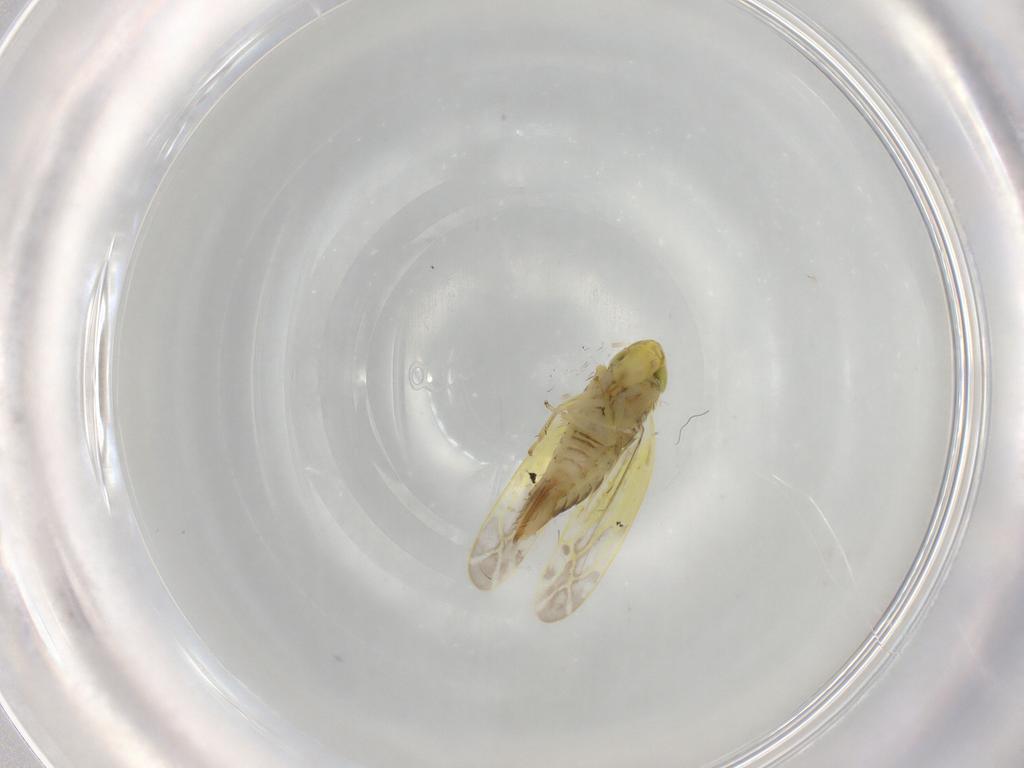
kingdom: Animalia
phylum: Arthropoda
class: Insecta
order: Hemiptera
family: Cicadellidae
